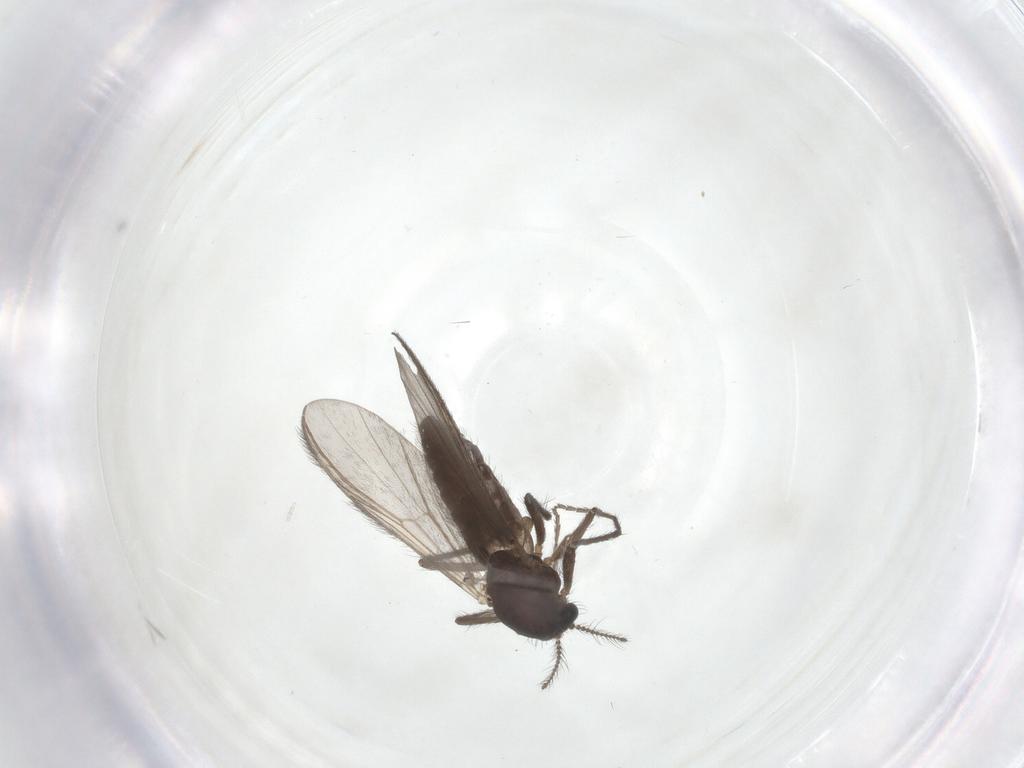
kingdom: Animalia
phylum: Arthropoda
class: Insecta
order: Diptera
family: Chironomidae
